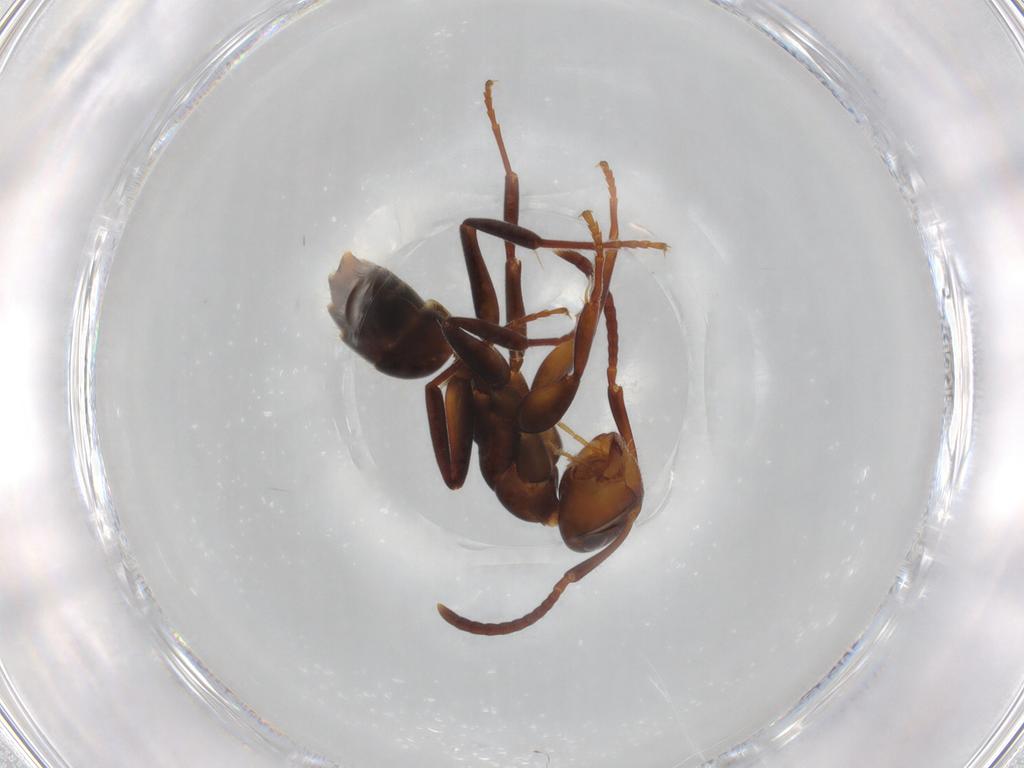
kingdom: Animalia
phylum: Arthropoda
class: Insecta
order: Hymenoptera
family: Formicidae
